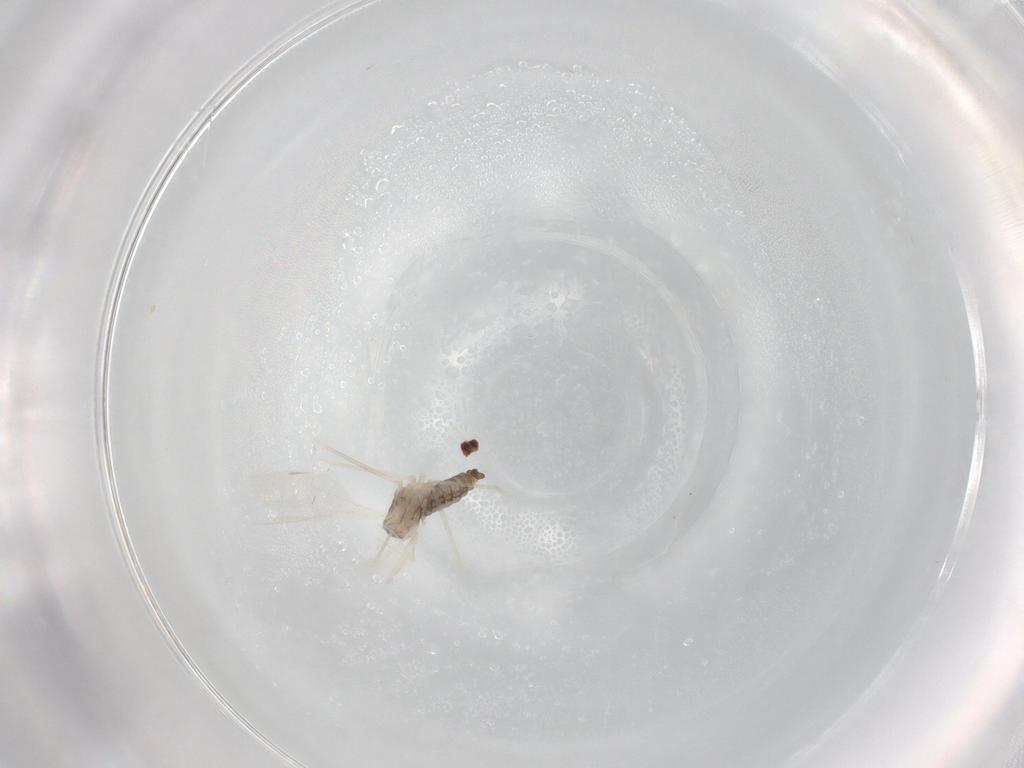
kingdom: Animalia
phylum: Arthropoda
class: Insecta
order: Diptera
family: Cecidomyiidae
